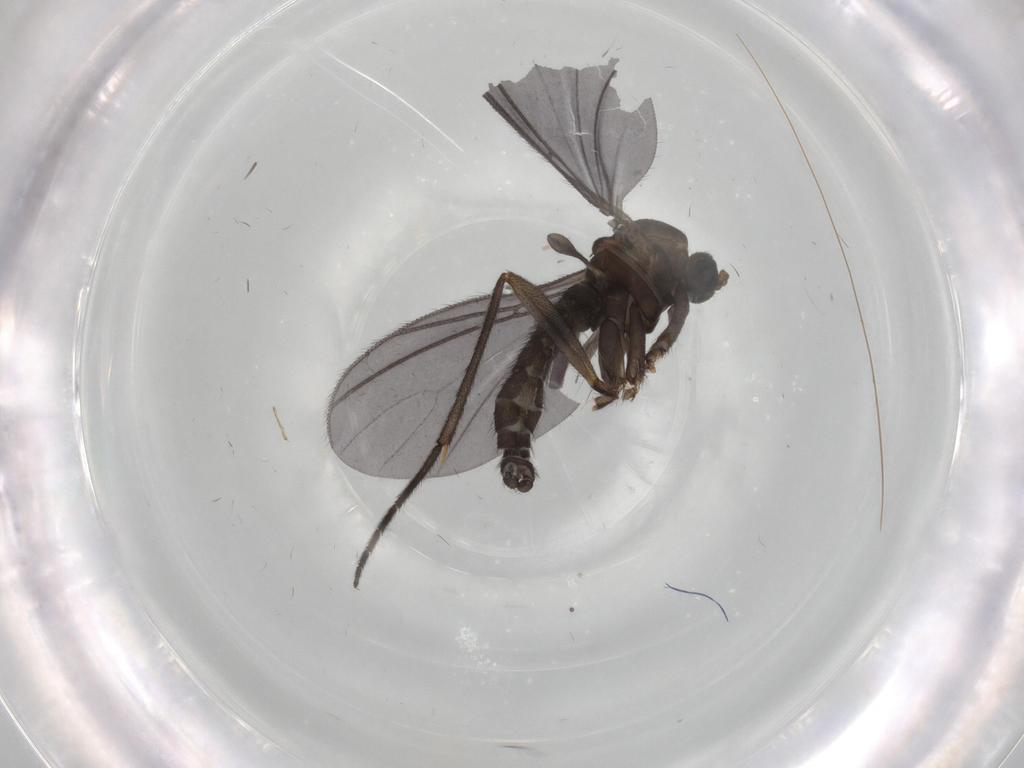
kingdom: Animalia
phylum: Arthropoda
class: Insecta
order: Diptera
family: Sciaridae
